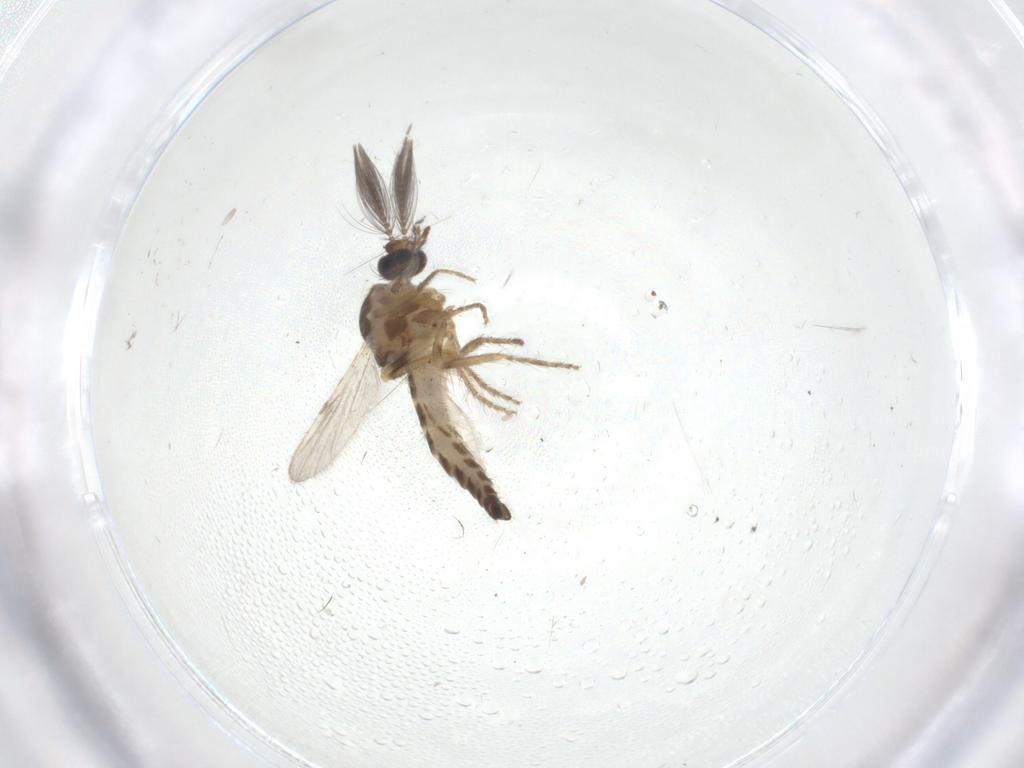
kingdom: Animalia
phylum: Arthropoda
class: Insecta
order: Diptera
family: Ceratopogonidae
